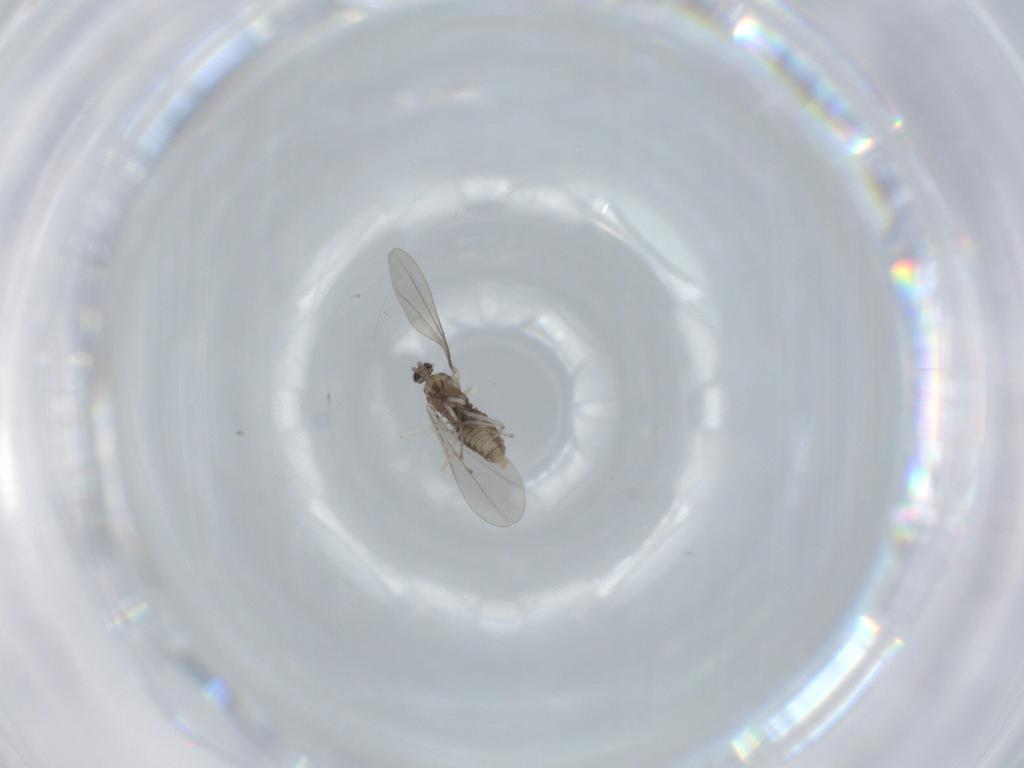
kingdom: Animalia
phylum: Arthropoda
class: Insecta
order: Diptera
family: Cecidomyiidae
